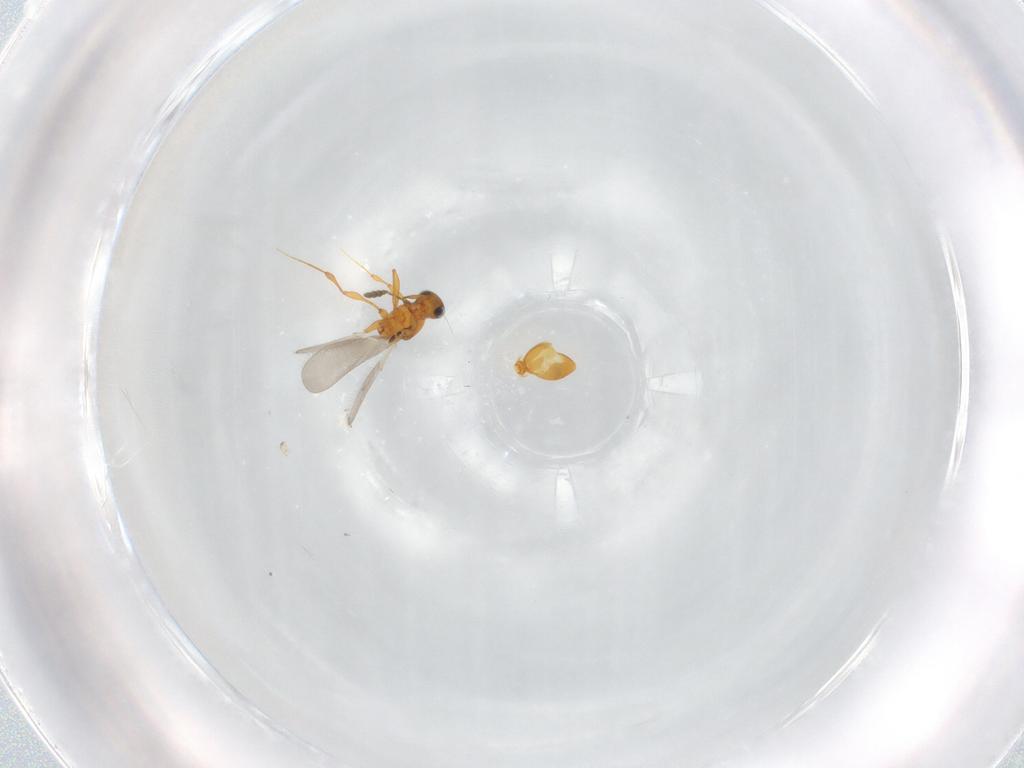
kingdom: Animalia
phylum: Arthropoda
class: Insecta
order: Hymenoptera
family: Platygastridae
